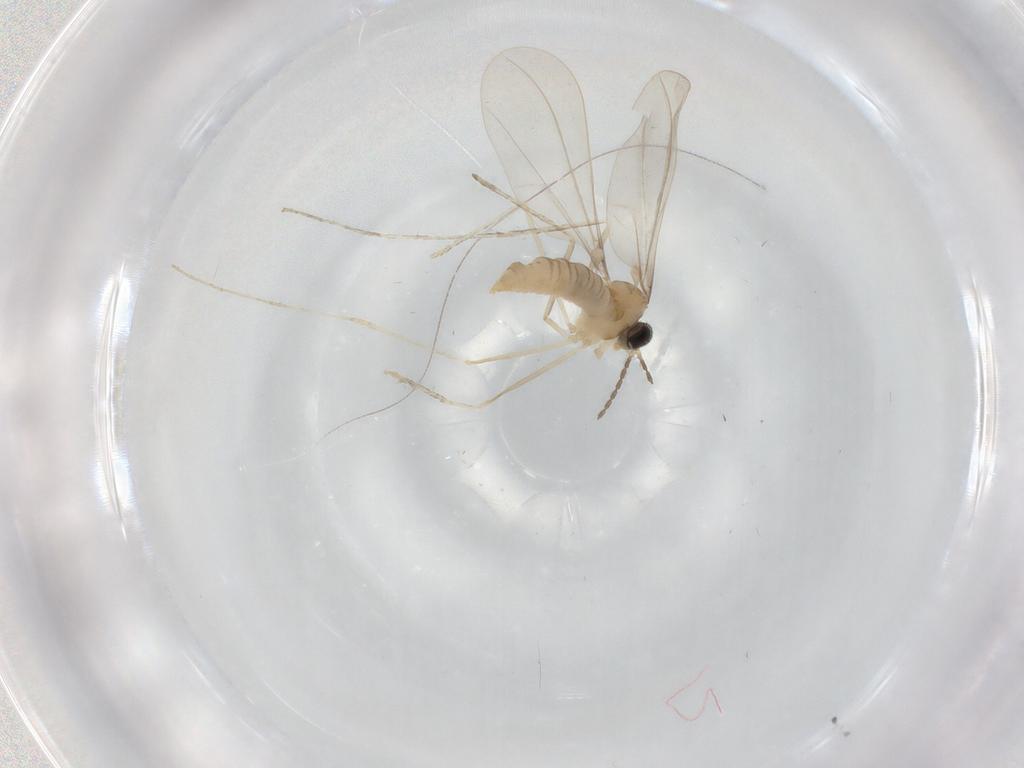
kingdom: Animalia
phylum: Arthropoda
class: Insecta
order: Diptera
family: Cecidomyiidae
